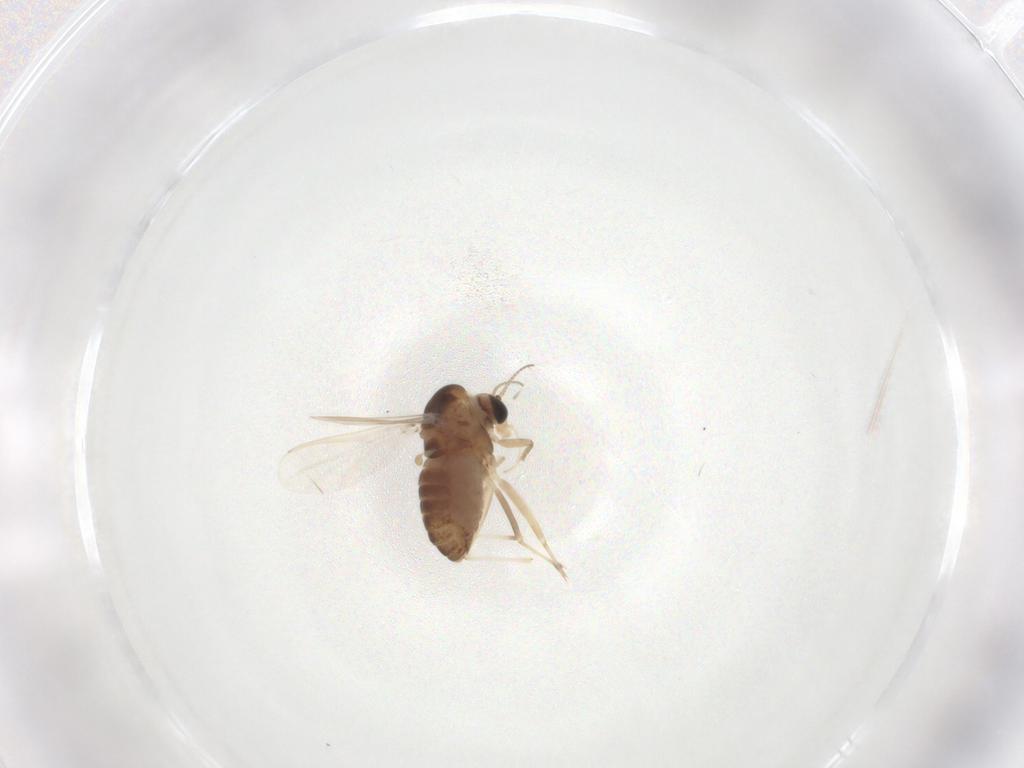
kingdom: Animalia
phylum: Arthropoda
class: Insecta
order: Diptera
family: Chironomidae
